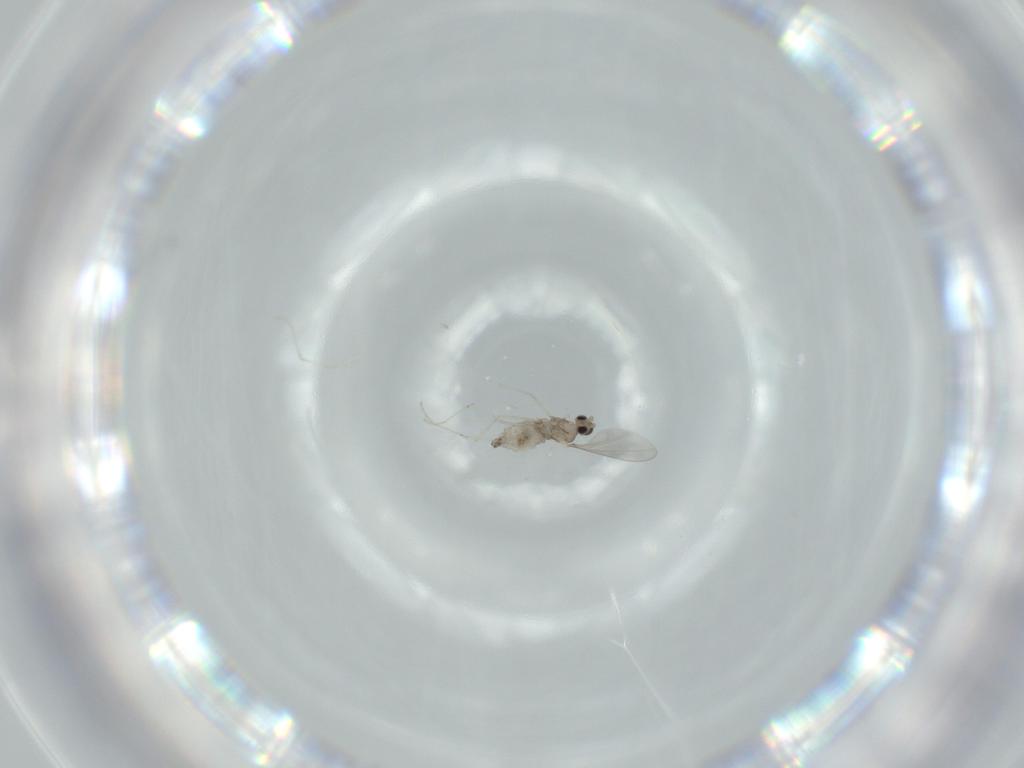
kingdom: Animalia
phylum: Arthropoda
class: Insecta
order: Diptera
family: Cecidomyiidae
